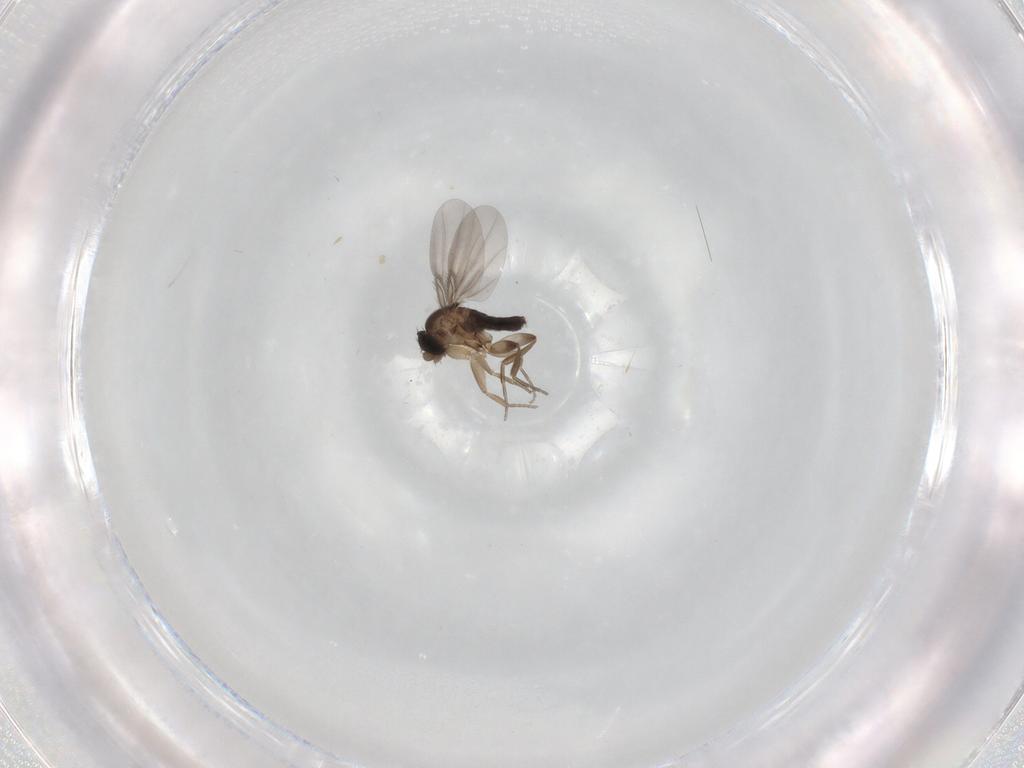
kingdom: Animalia
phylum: Arthropoda
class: Insecta
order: Diptera
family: Phoridae
